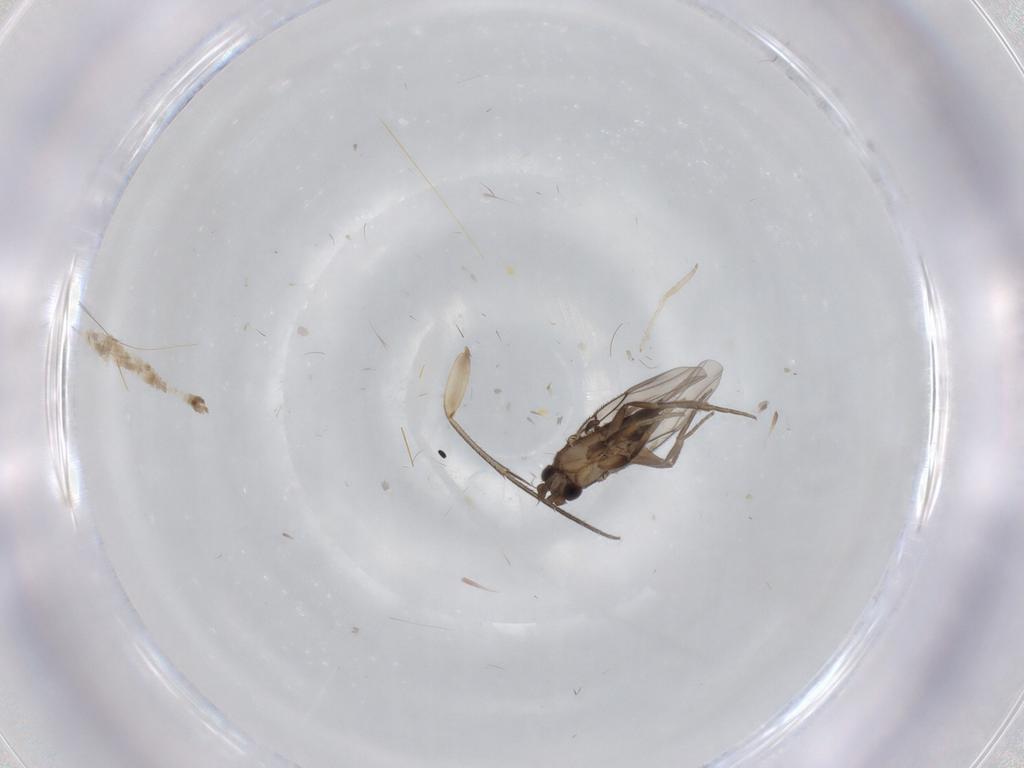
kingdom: Animalia
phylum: Arthropoda
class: Insecta
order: Diptera
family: Phoridae
